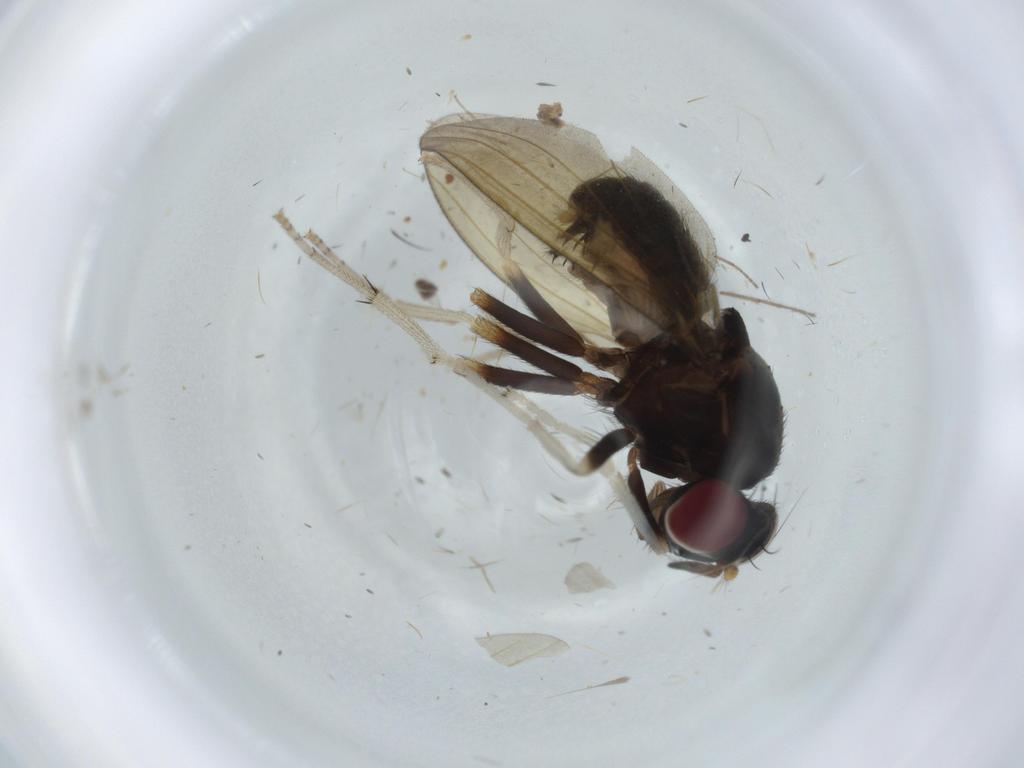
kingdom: Animalia
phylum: Arthropoda
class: Insecta
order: Diptera
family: Cecidomyiidae
